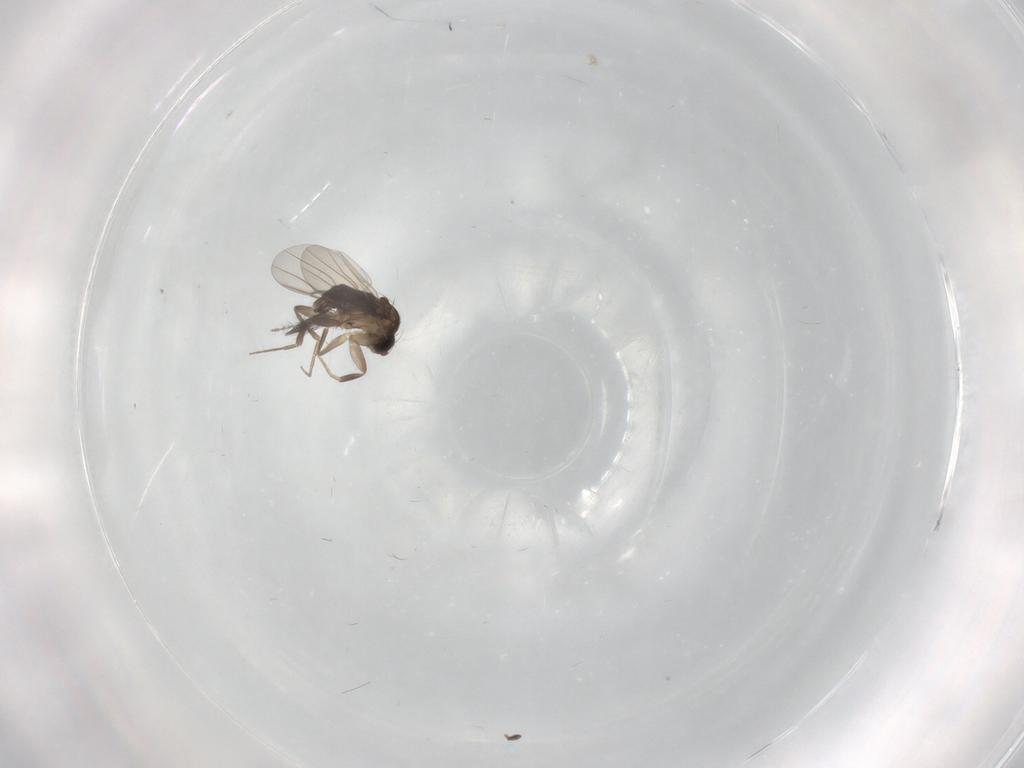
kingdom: Animalia
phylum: Arthropoda
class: Insecta
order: Diptera
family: Phoridae
